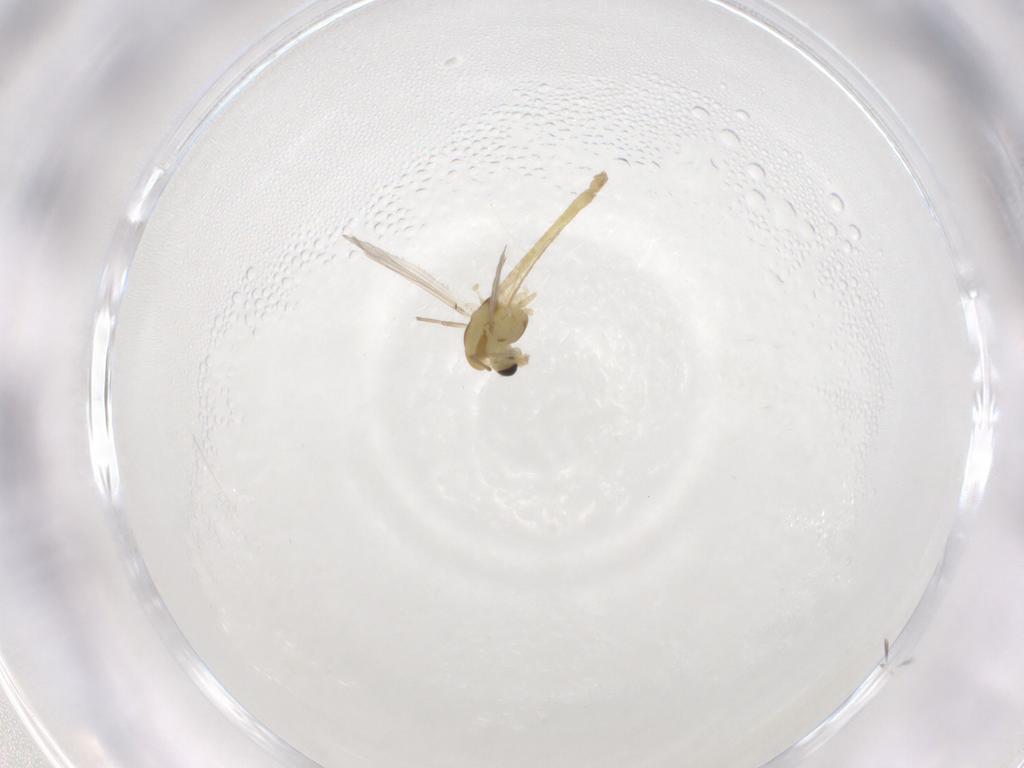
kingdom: Animalia
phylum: Arthropoda
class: Insecta
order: Diptera
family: Chironomidae
